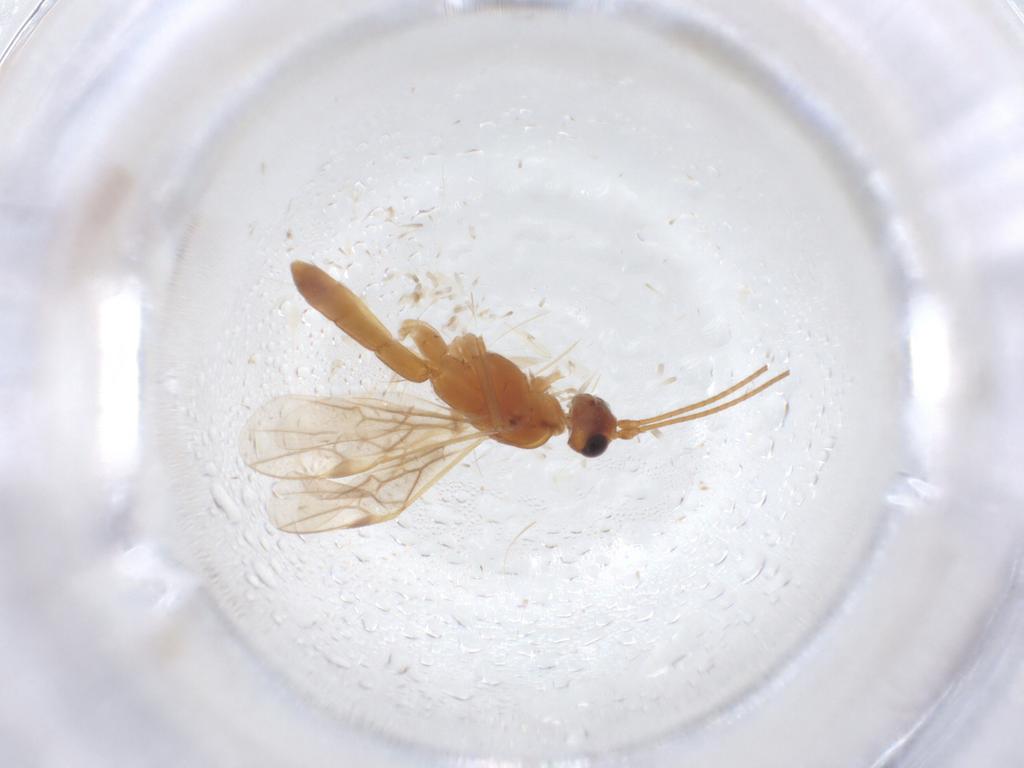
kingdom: Animalia
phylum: Arthropoda
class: Insecta
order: Hymenoptera
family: Braconidae
